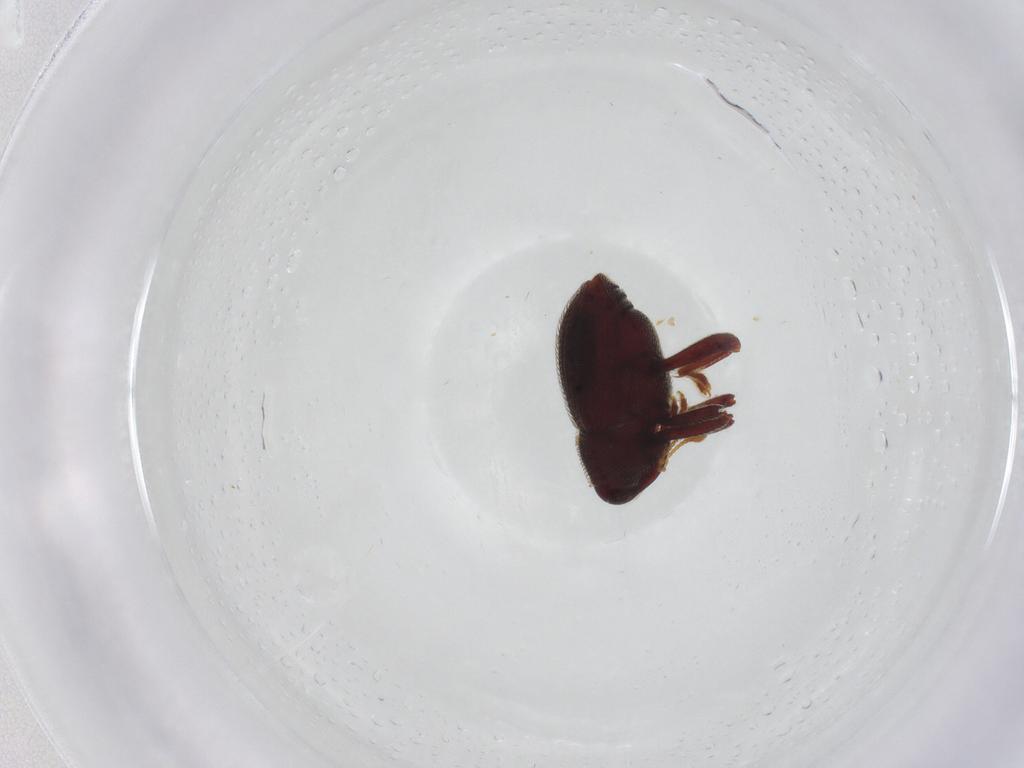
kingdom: Animalia
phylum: Arthropoda
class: Insecta
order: Coleoptera
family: Curculionidae
